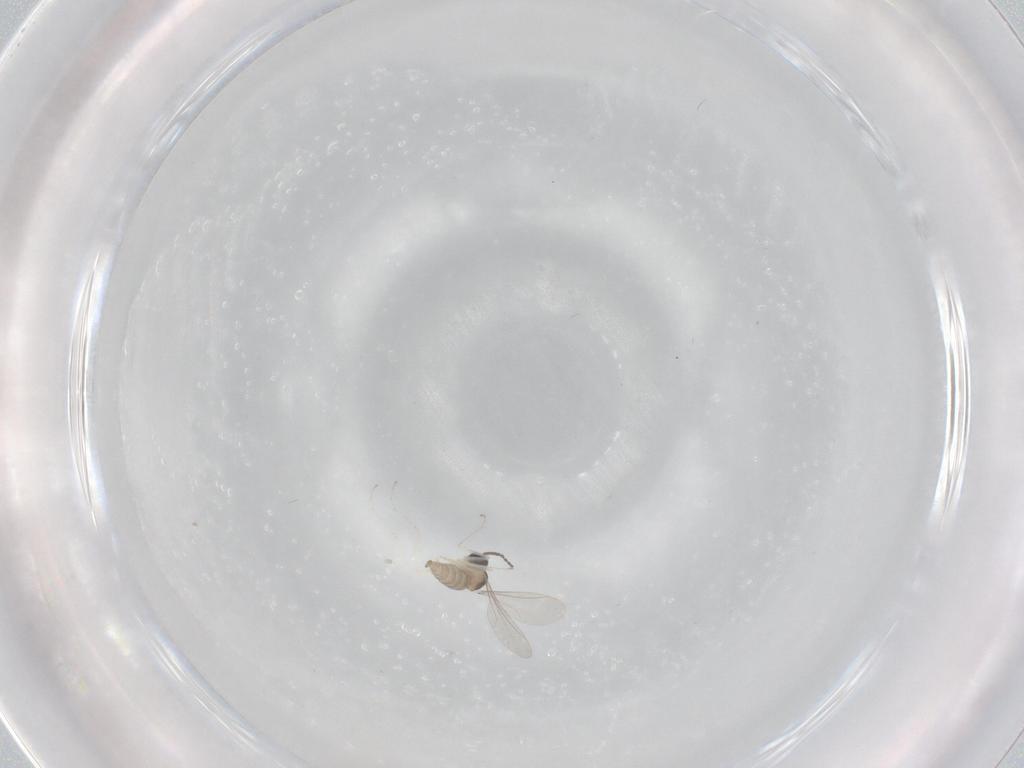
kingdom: Animalia
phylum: Arthropoda
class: Insecta
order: Diptera
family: Cecidomyiidae
